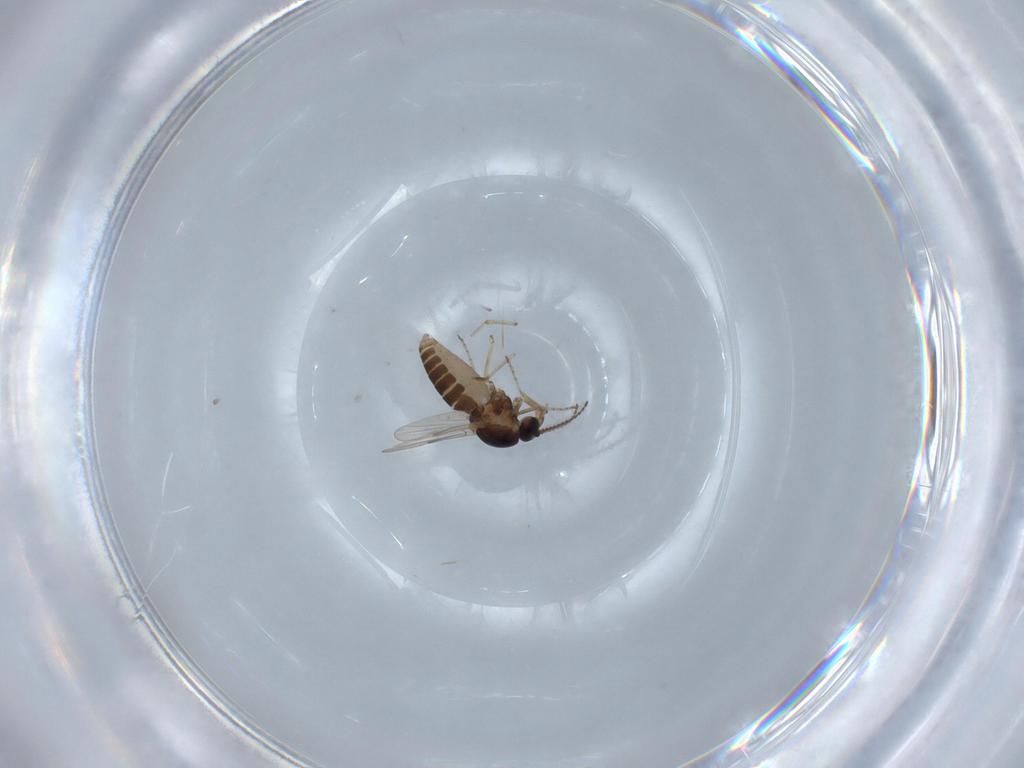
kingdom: Animalia
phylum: Arthropoda
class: Insecta
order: Diptera
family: Ceratopogonidae
